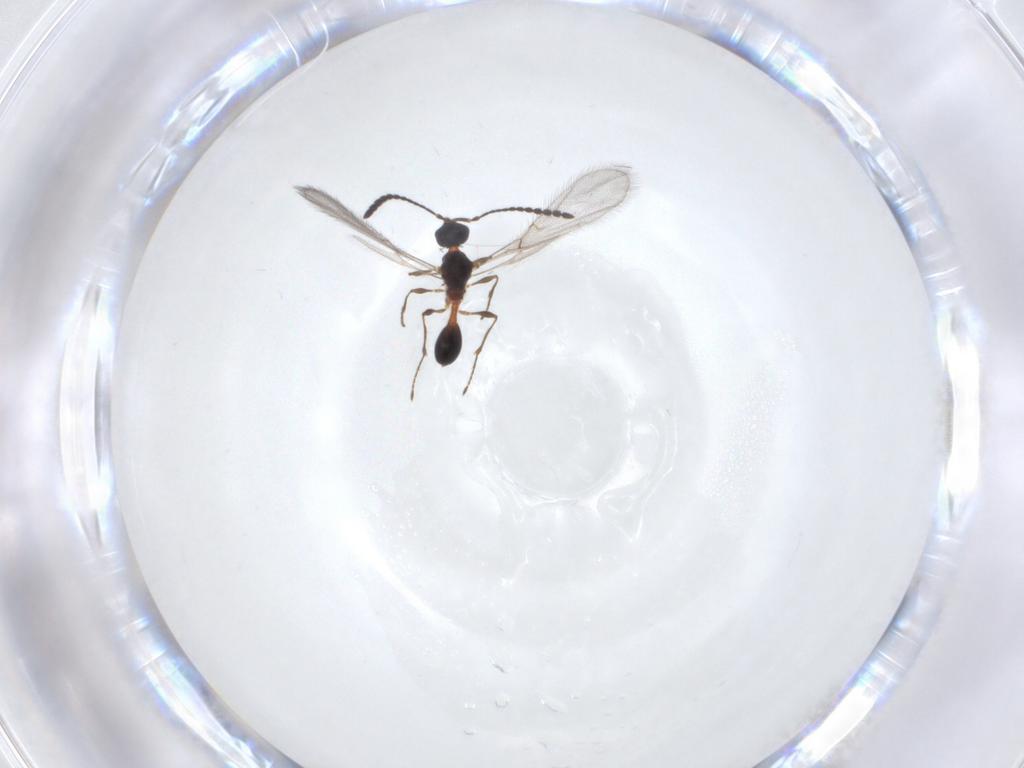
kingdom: Animalia
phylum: Arthropoda
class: Insecta
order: Hymenoptera
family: Diapriidae
